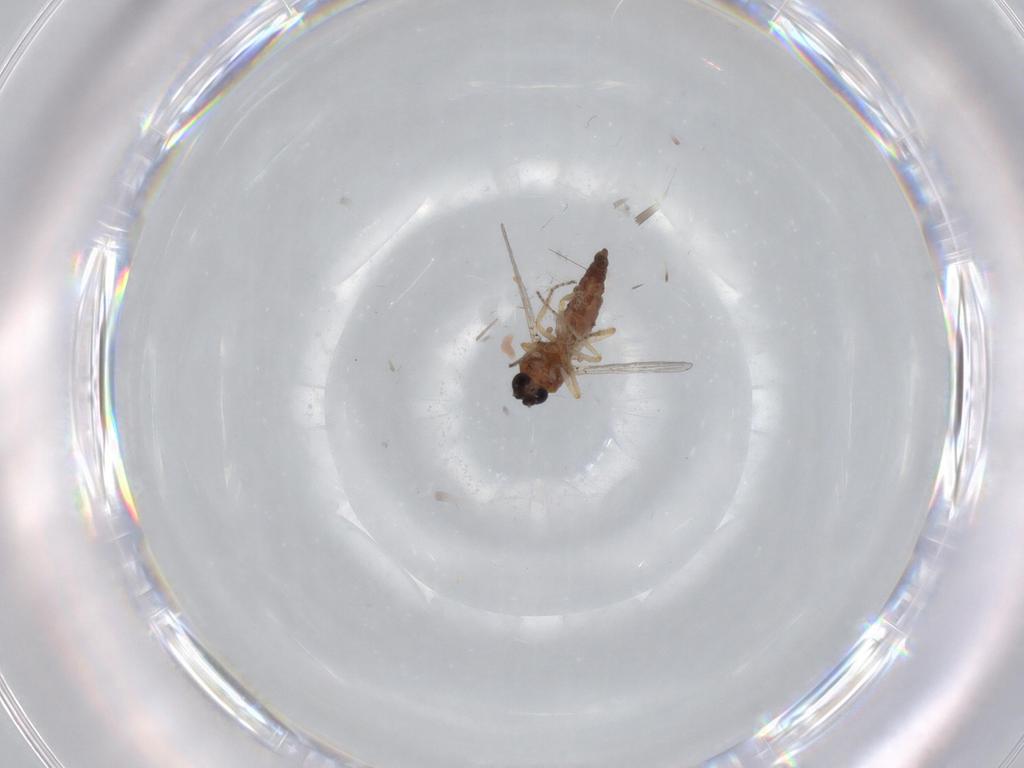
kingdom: Animalia
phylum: Arthropoda
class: Insecta
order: Diptera
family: Ceratopogonidae
